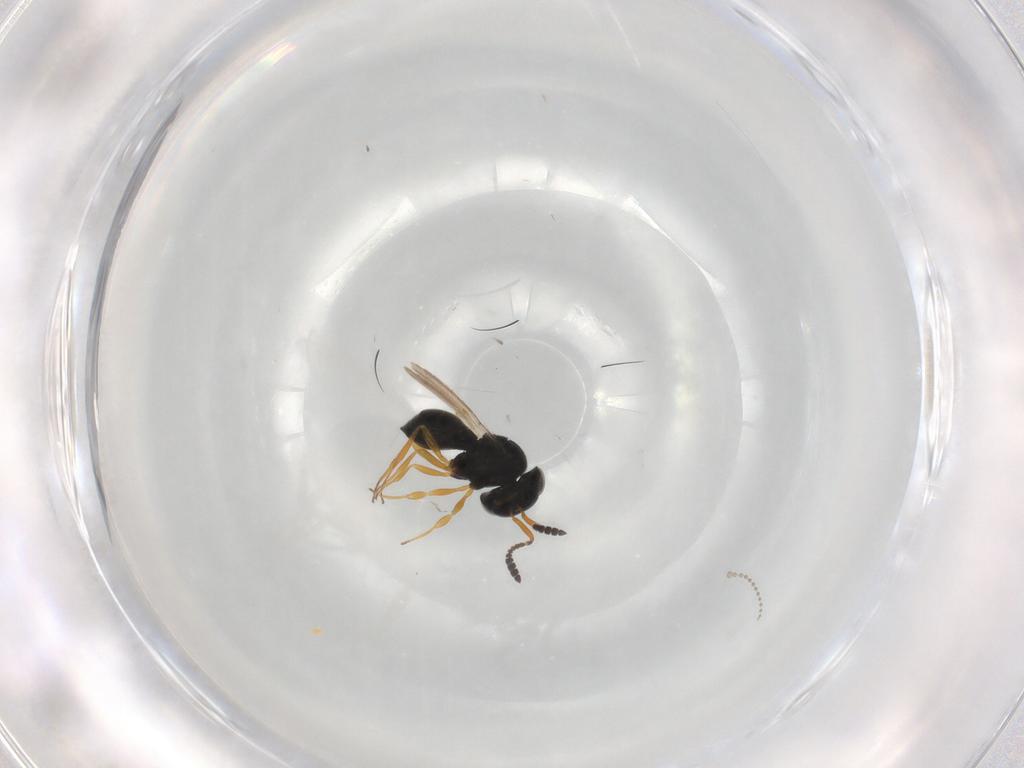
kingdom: Animalia
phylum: Arthropoda
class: Insecta
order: Hymenoptera
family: Scelionidae
